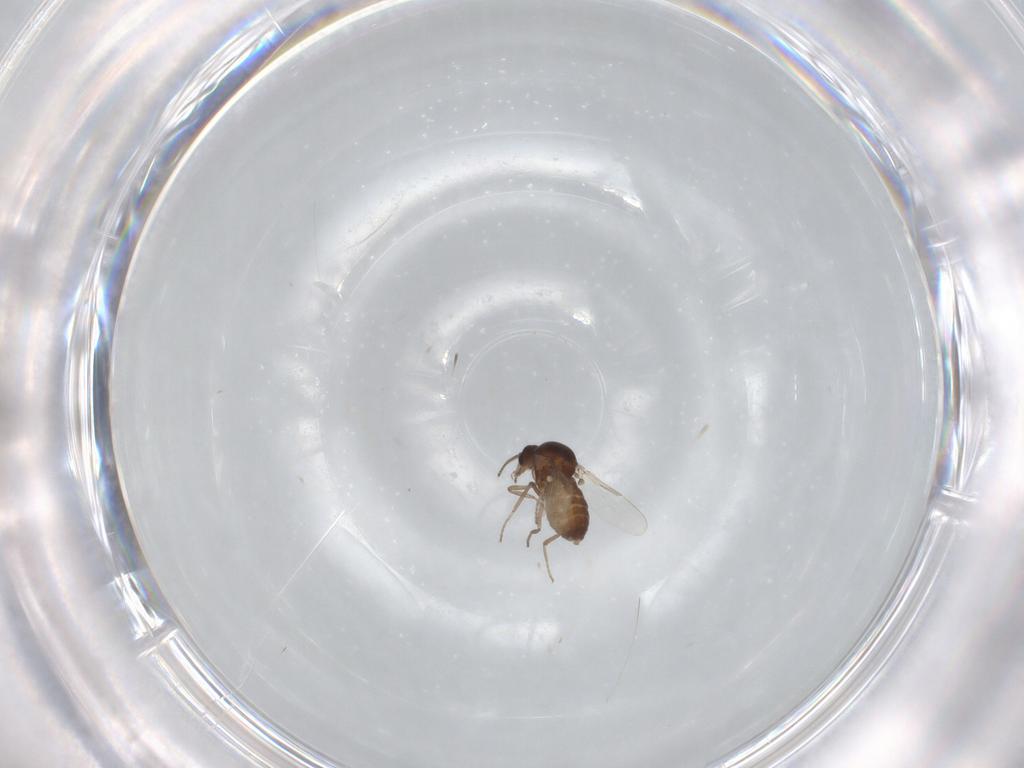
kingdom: Animalia
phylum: Arthropoda
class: Insecta
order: Diptera
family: Ceratopogonidae
